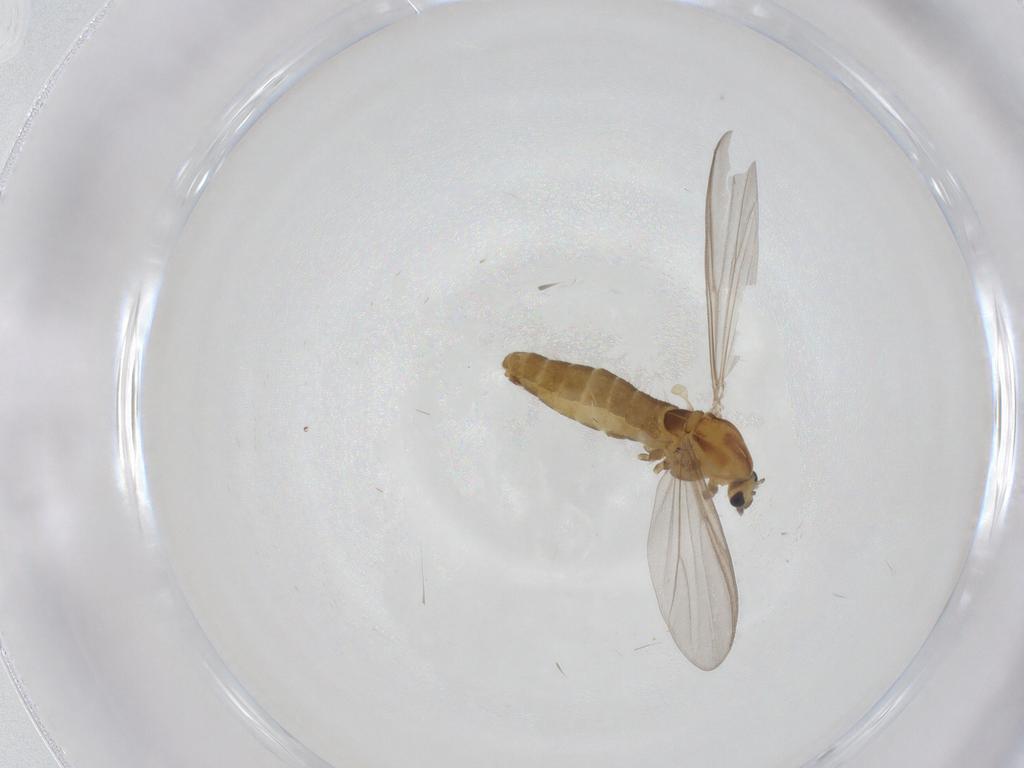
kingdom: Animalia
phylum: Arthropoda
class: Insecta
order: Diptera
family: Chironomidae
